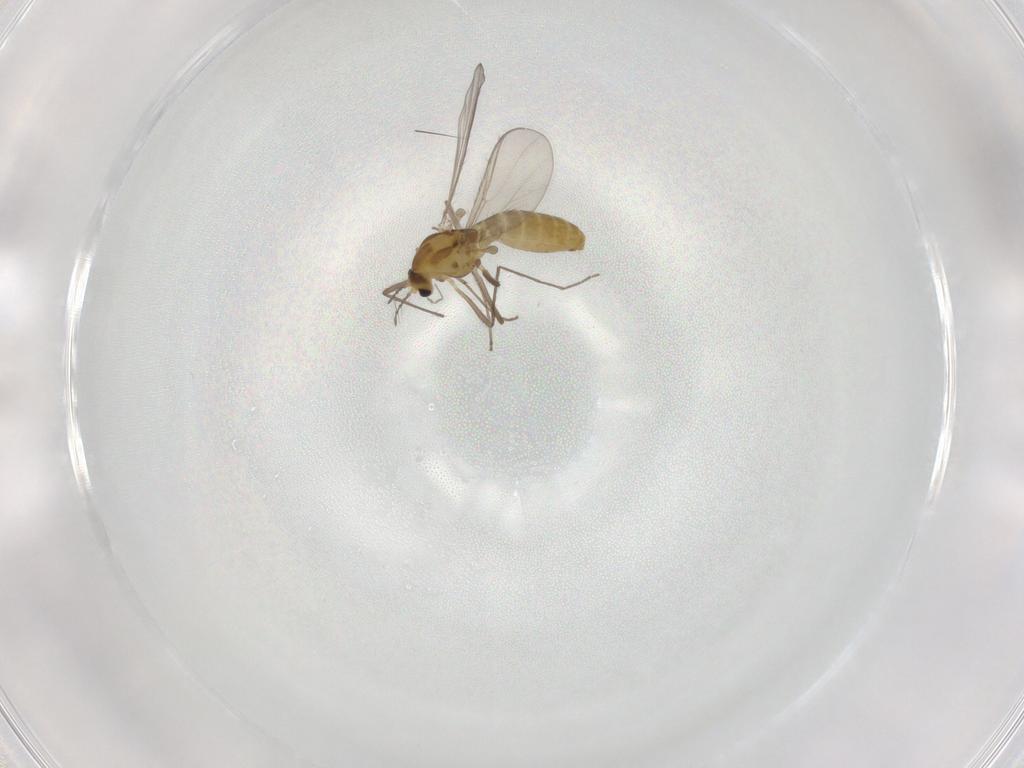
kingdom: Animalia
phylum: Arthropoda
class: Insecta
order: Diptera
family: Chironomidae
